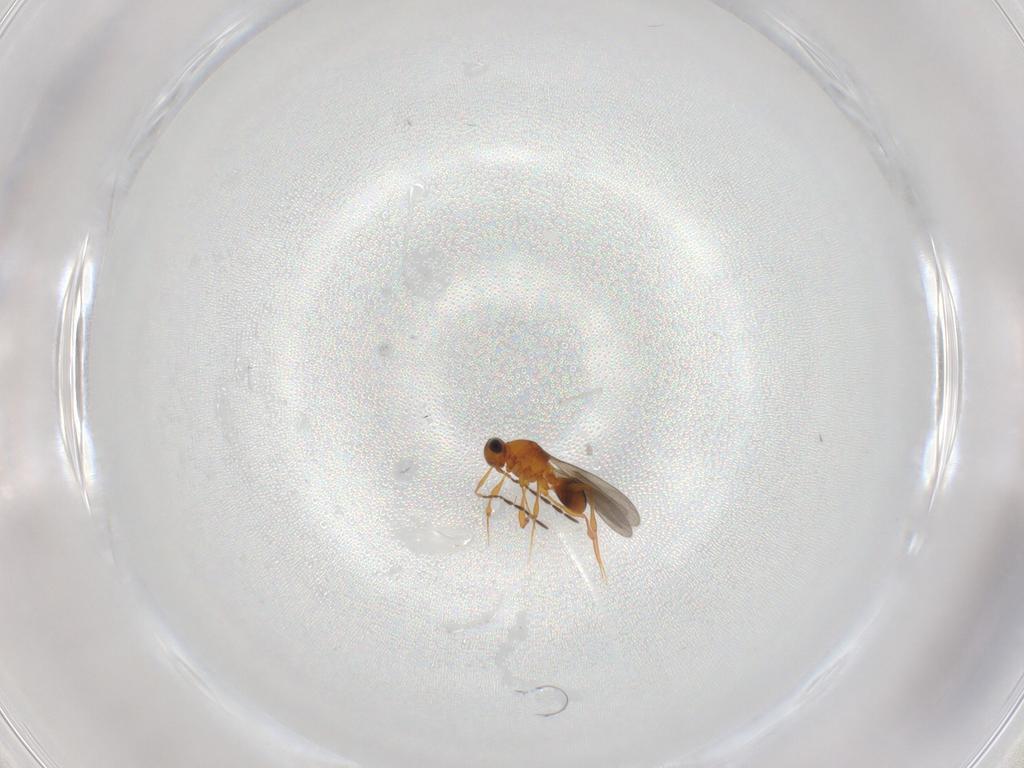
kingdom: Animalia
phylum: Arthropoda
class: Insecta
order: Hymenoptera
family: Platygastridae
